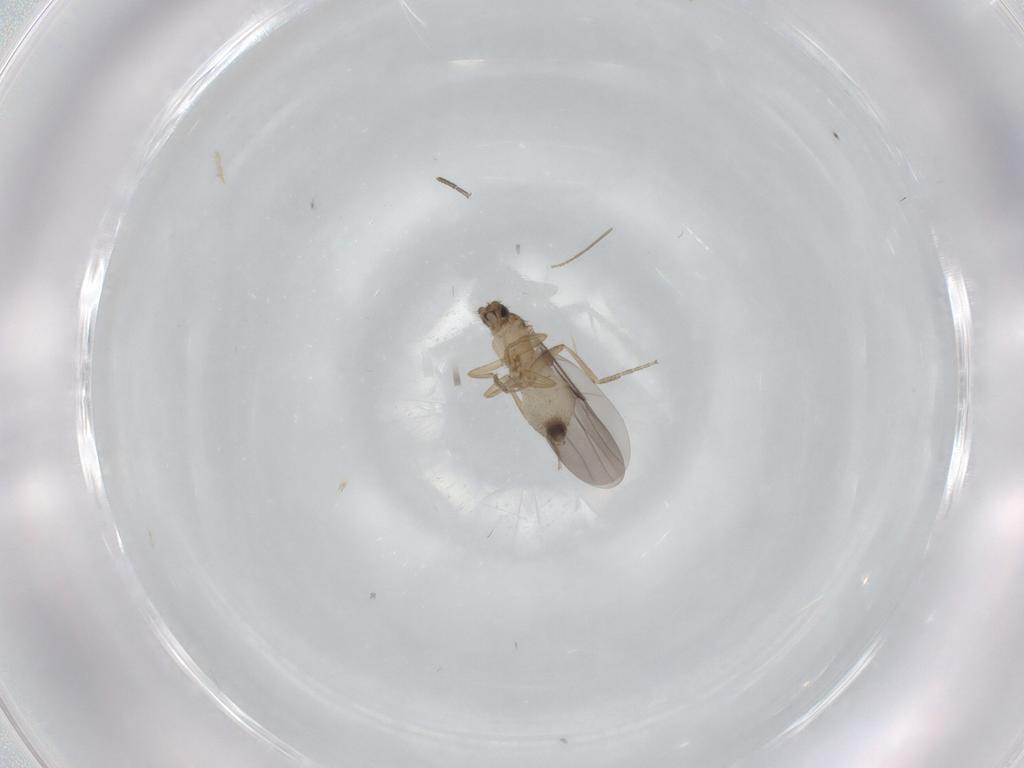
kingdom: Animalia
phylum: Arthropoda
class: Insecta
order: Diptera
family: Phoridae
